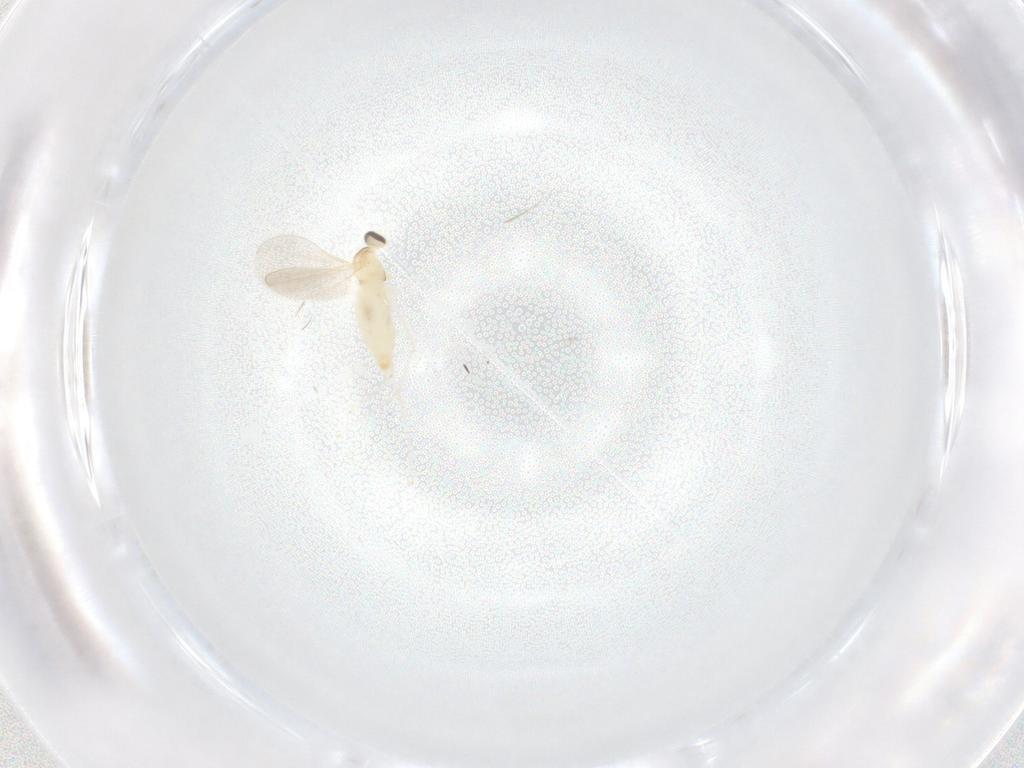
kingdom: Animalia
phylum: Arthropoda
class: Insecta
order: Diptera
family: Cecidomyiidae
